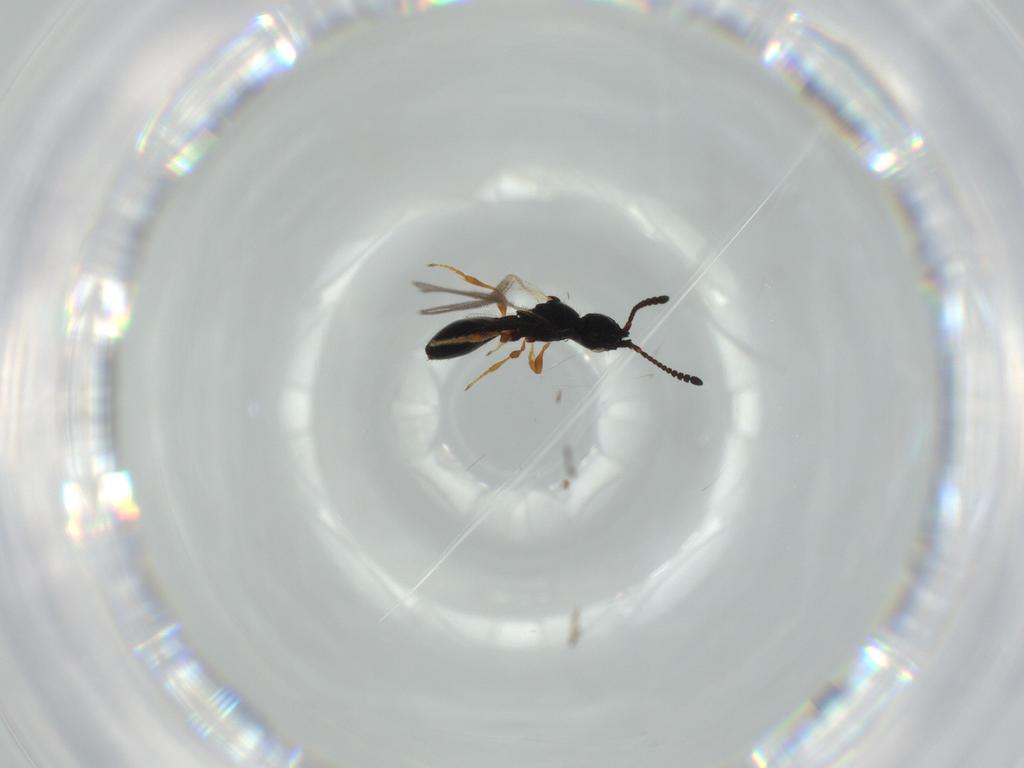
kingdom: Animalia
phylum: Arthropoda
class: Insecta
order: Hymenoptera
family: Diapriidae
